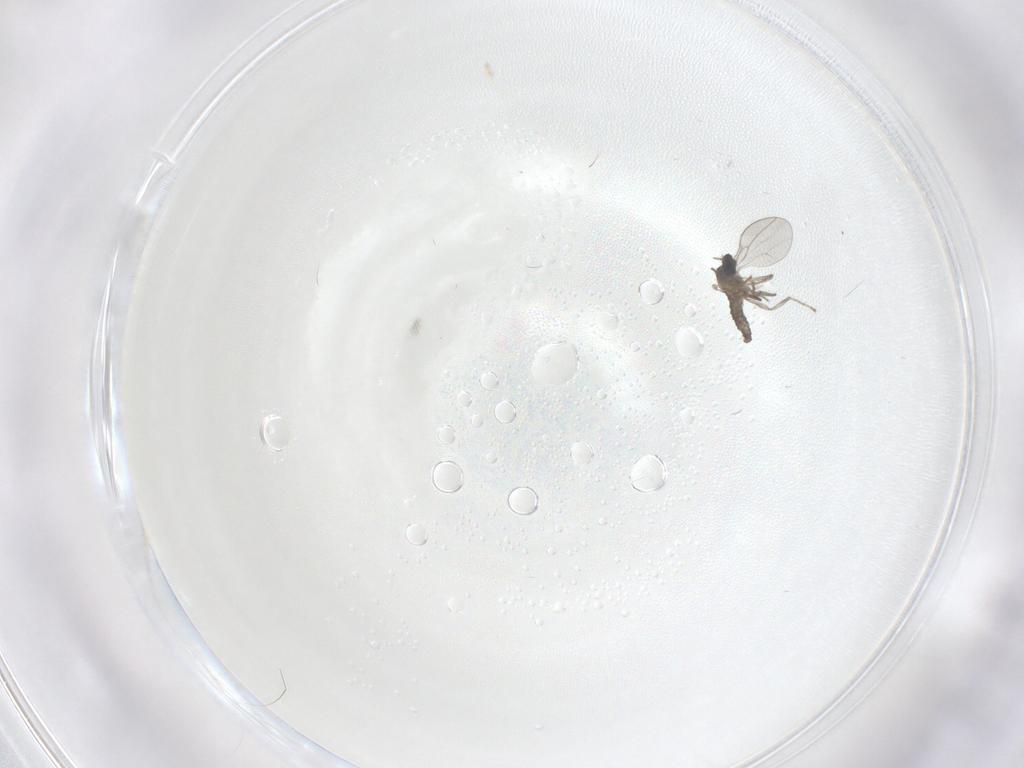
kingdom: Animalia
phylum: Arthropoda
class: Insecta
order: Diptera
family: Cecidomyiidae
